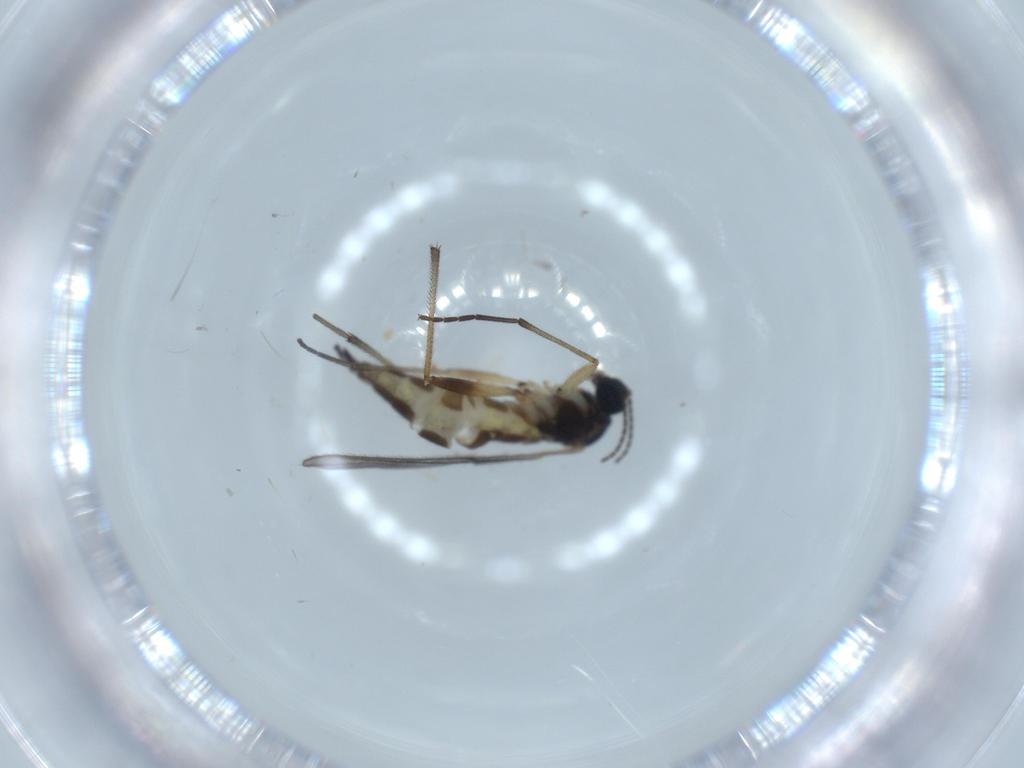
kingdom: Animalia
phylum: Arthropoda
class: Insecta
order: Diptera
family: Sciaridae
